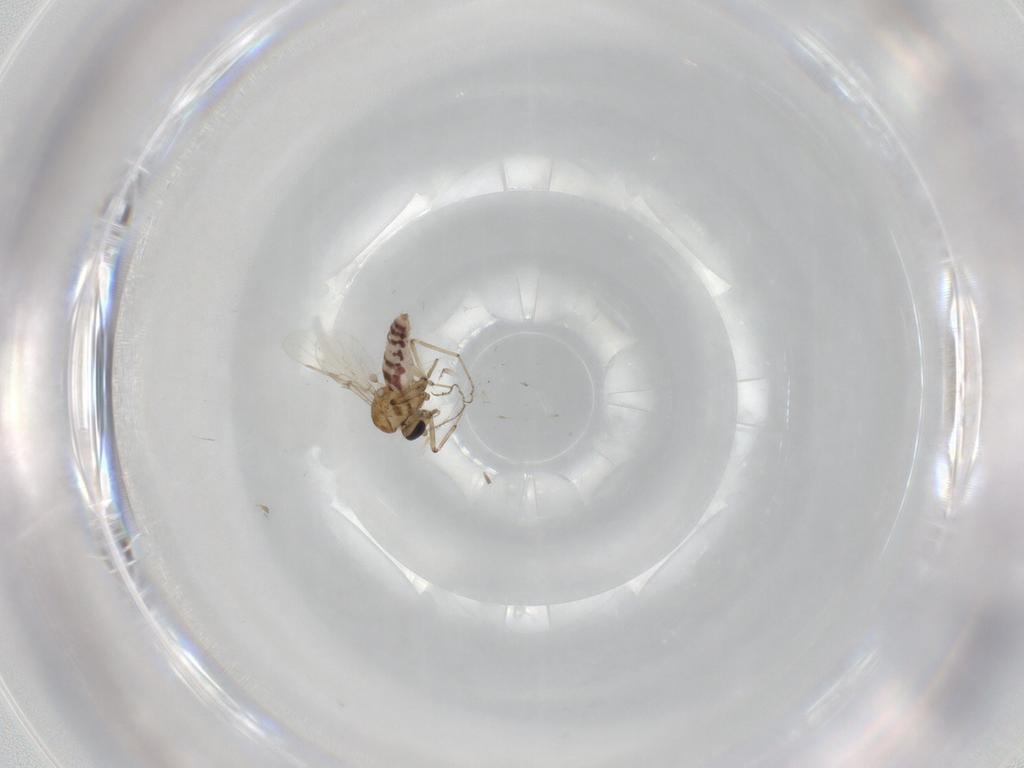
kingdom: Animalia
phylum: Arthropoda
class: Insecta
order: Diptera
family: Ceratopogonidae
